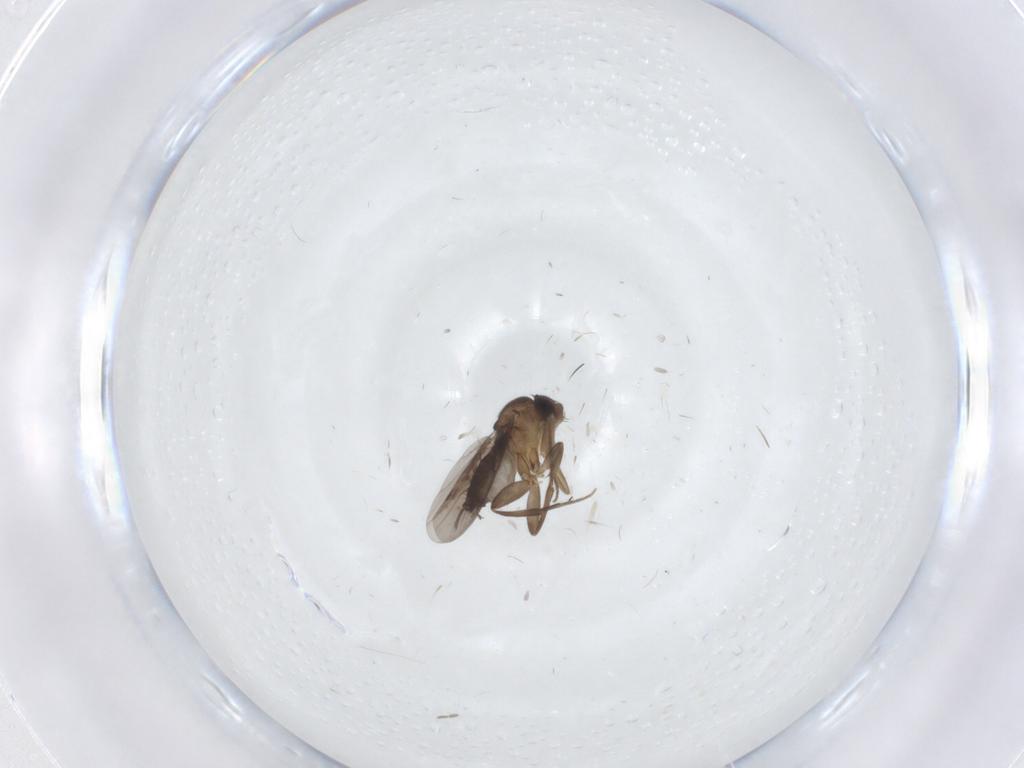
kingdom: Animalia
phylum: Arthropoda
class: Insecta
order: Diptera
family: Phoridae
